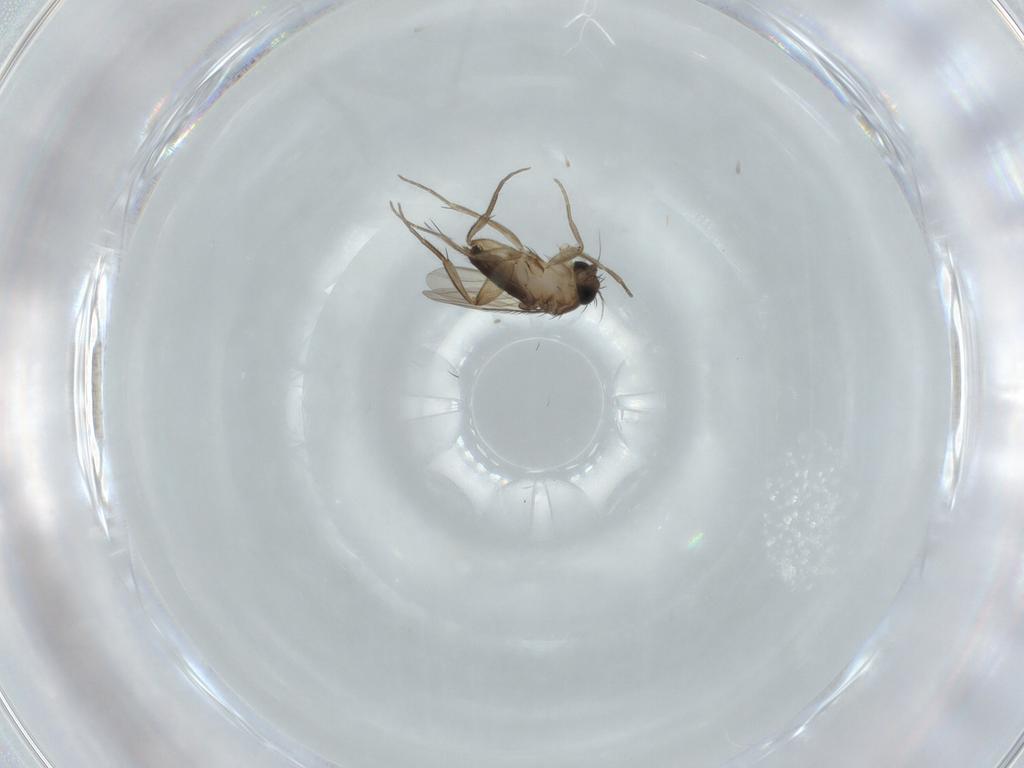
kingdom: Animalia
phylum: Arthropoda
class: Insecta
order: Diptera
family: Phoridae
